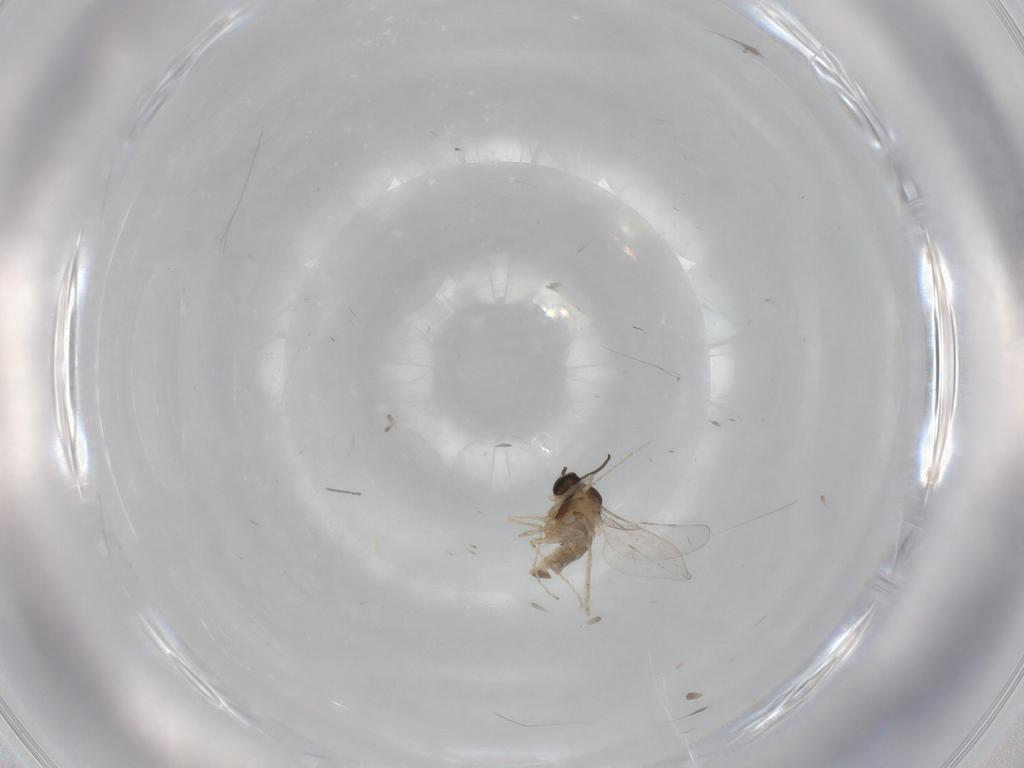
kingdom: Animalia
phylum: Arthropoda
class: Insecta
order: Diptera
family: Cecidomyiidae
